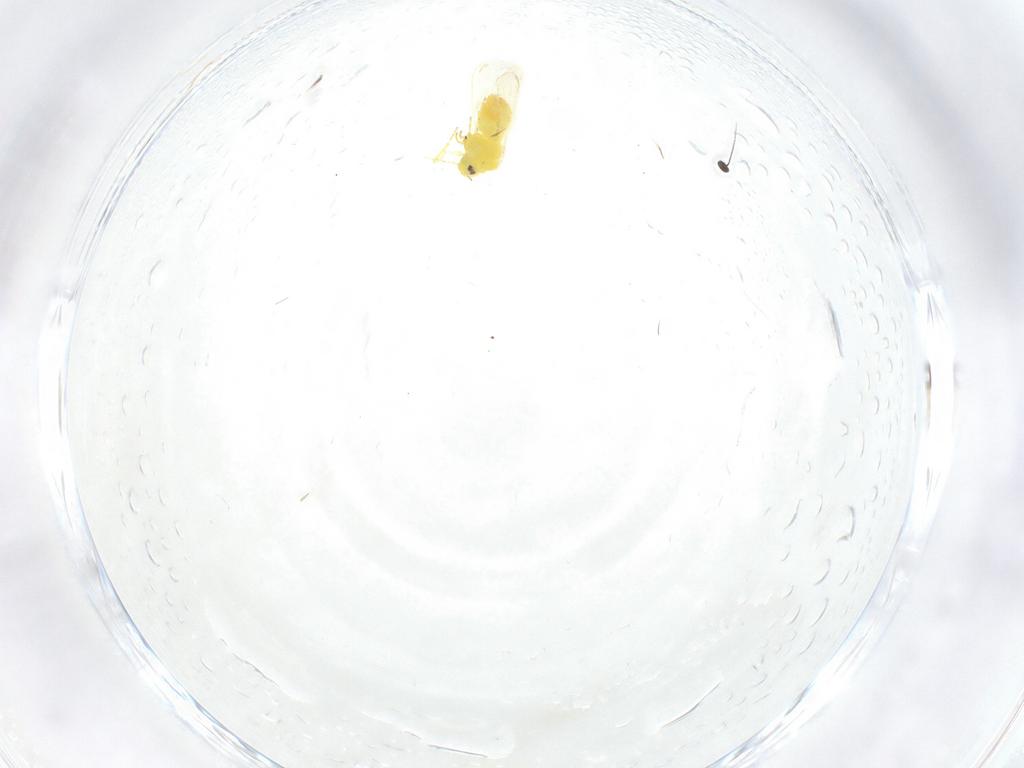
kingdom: Animalia
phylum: Arthropoda
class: Insecta
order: Hemiptera
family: Aleyrodidae
